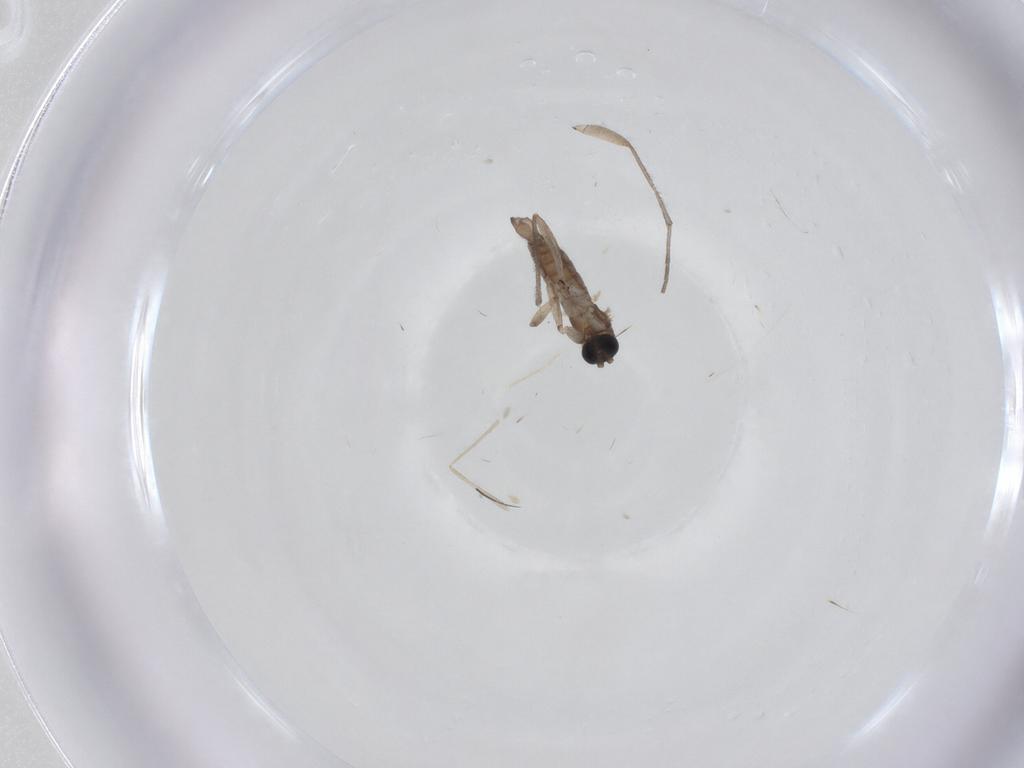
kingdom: Animalia
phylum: Arthropoda
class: Insecta
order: Diptera
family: Sciaridae
